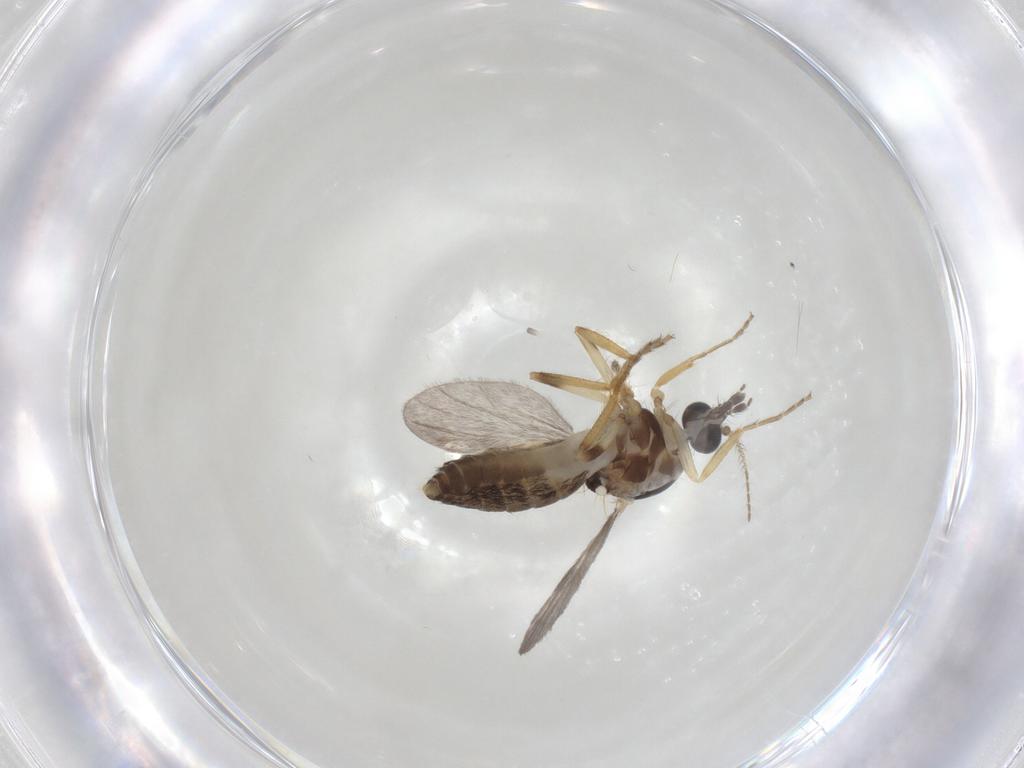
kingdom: Animalia
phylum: Arthropoda
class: Insecta
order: Diptera
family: Ceratopogonidae
